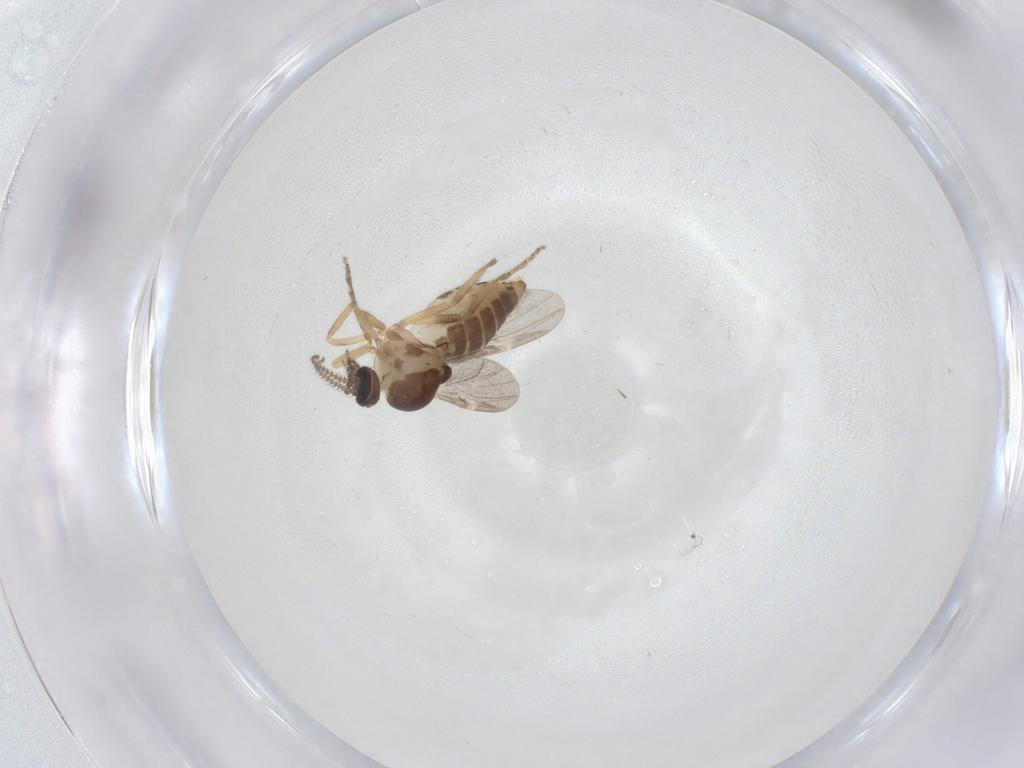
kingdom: Animalia
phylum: Arthropoda
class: Insecta
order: Diptera
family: Ceratopogonidae
